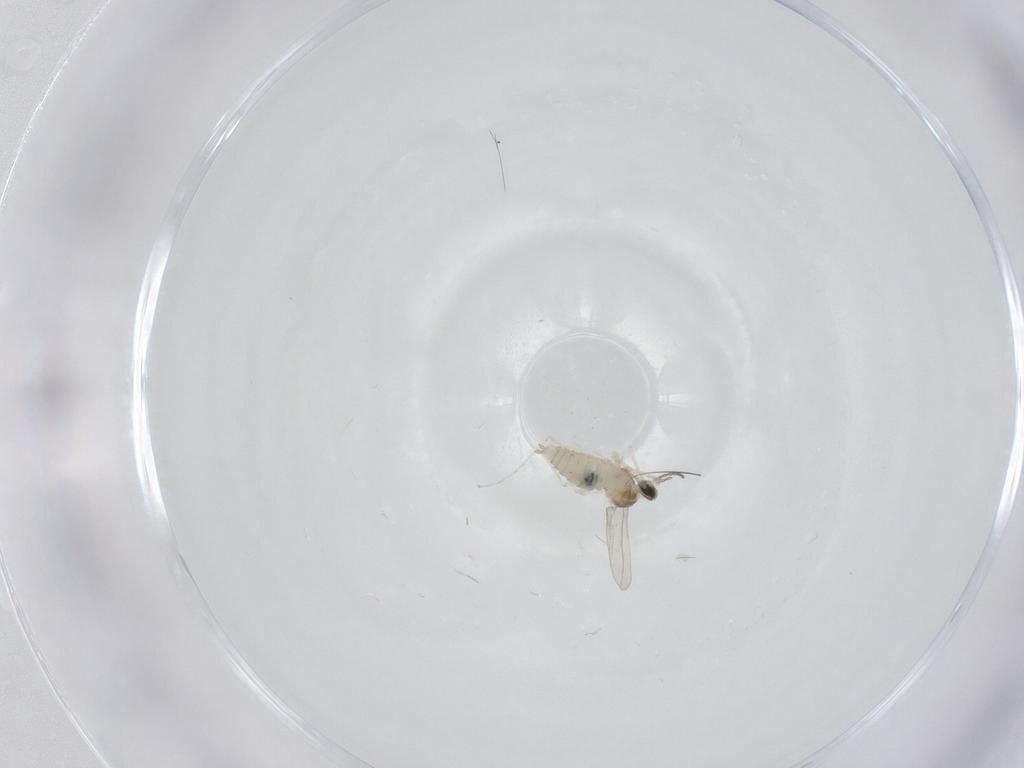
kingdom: Animalia
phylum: Arthropoda
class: Insecta
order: Diptera
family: Cecidomyiidae
